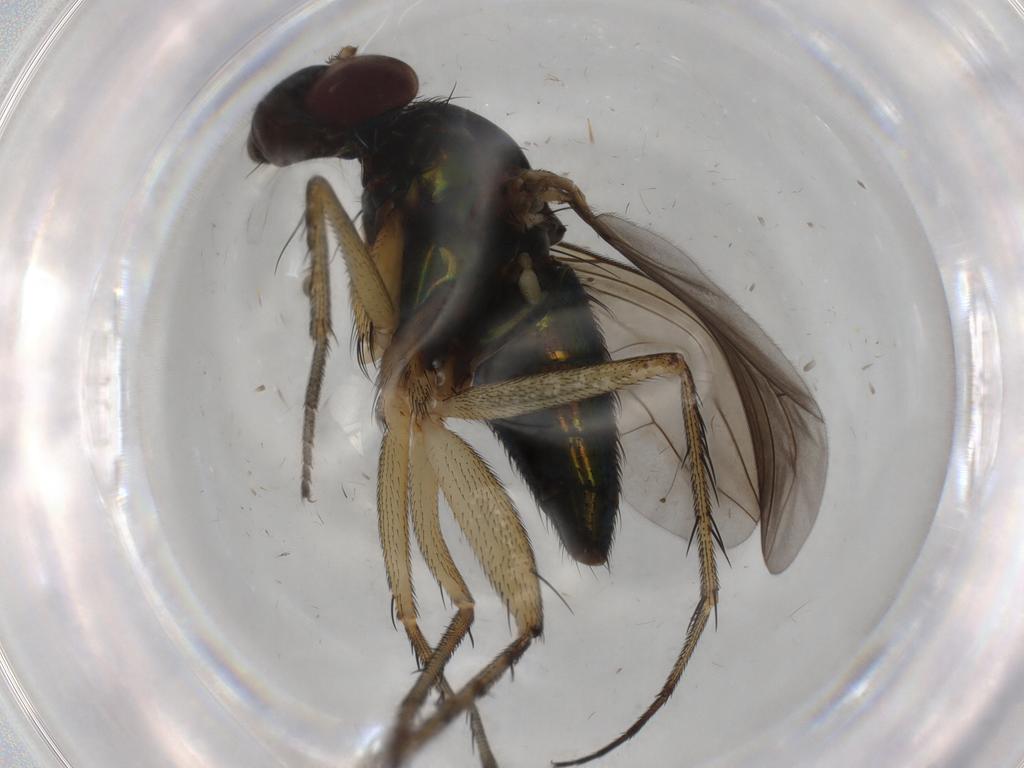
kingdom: Animalia
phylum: Arthropoda
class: Insecta
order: Diptera
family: Dolichopodidae
